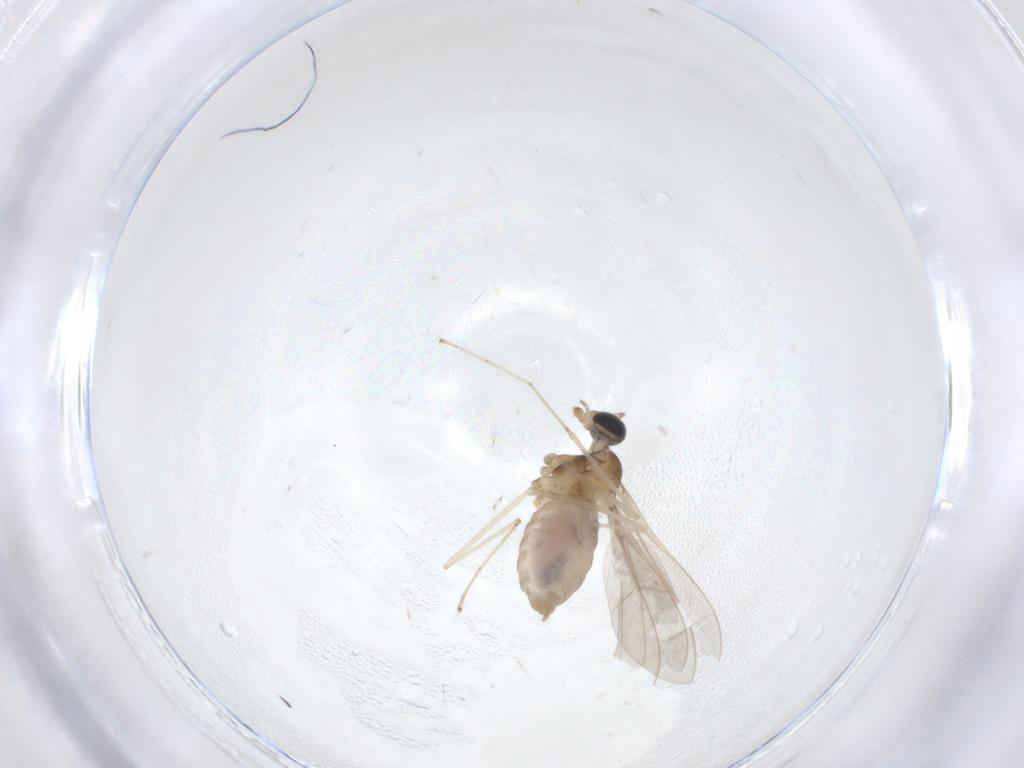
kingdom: Animalia
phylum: Arthropoda
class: Insecta
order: Diptera
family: Cecidomyiidae
